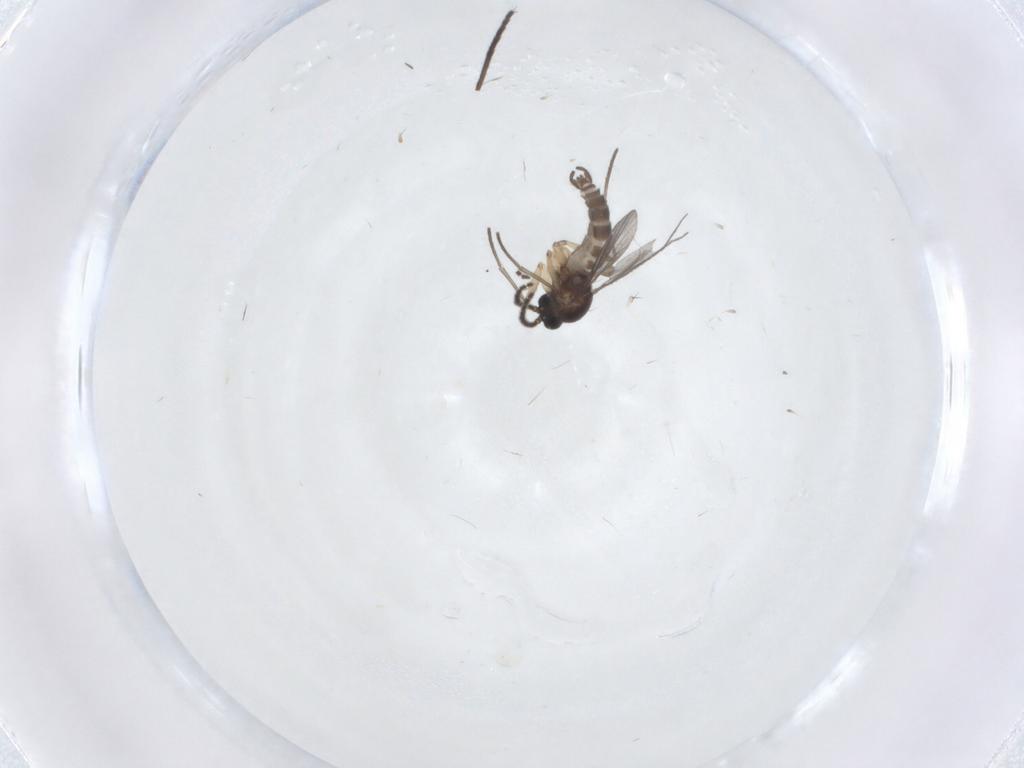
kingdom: Animalia
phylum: Arthropoda
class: Insecta
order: Diptera
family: Sciaridae
